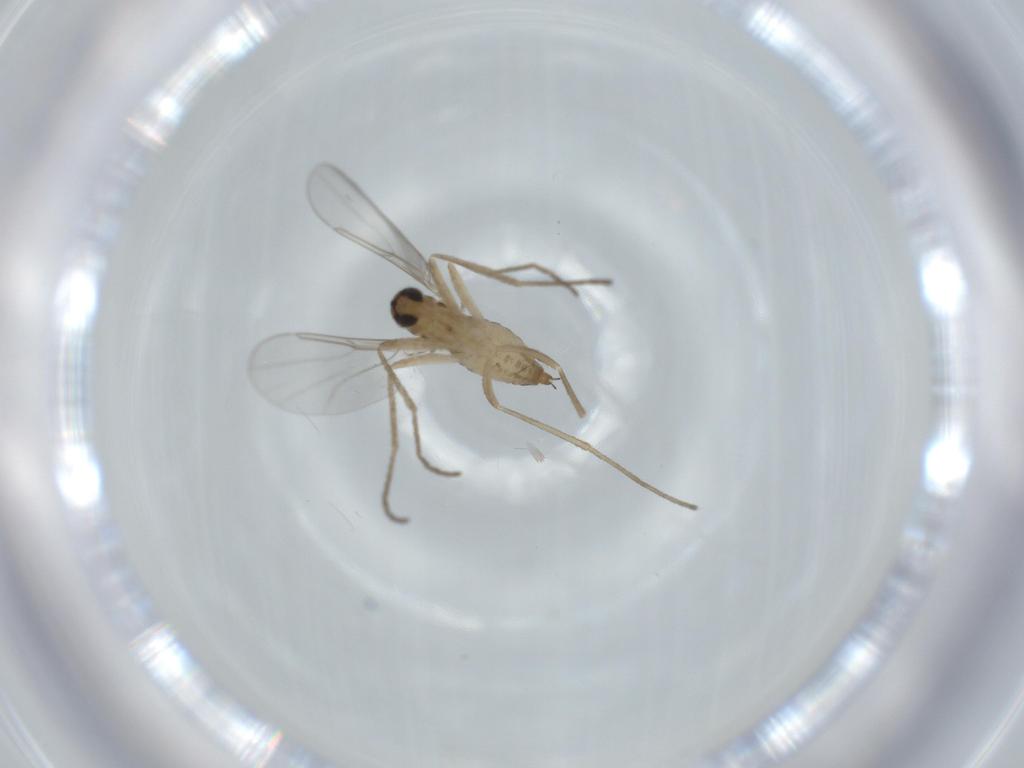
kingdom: Animalia
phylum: Arthropoda
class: Insecta
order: Diptera
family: Cecidomyiidae
